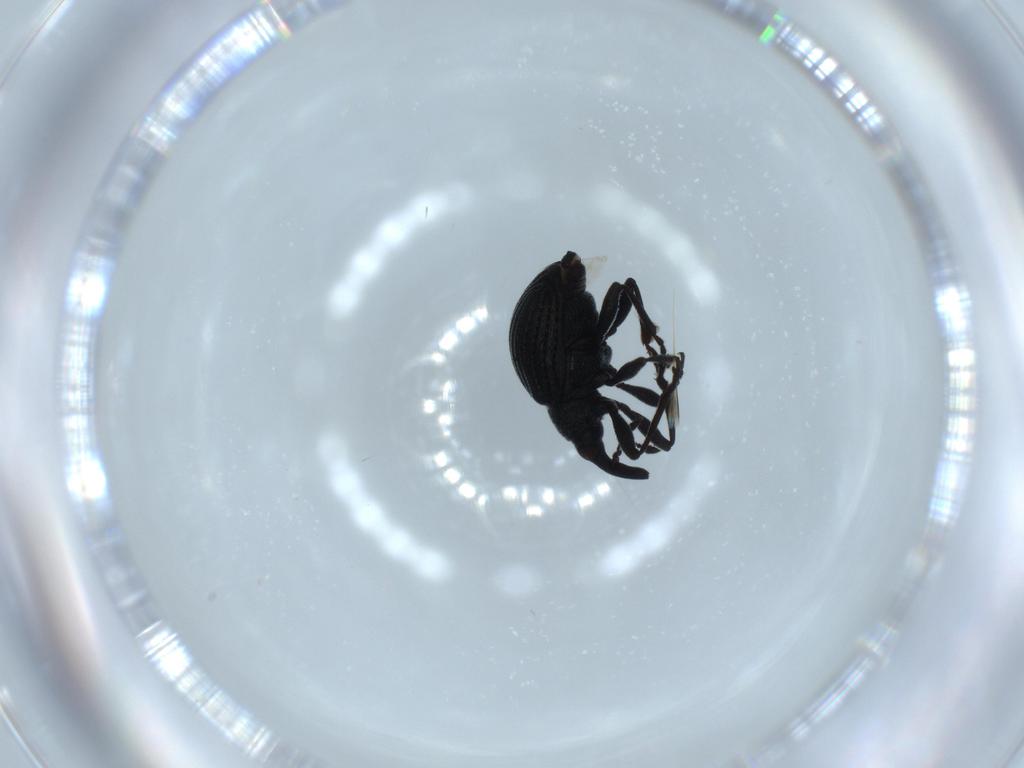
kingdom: Animalia
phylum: Arthropoda
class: Insecta
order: Coleoptera
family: Brentidae
